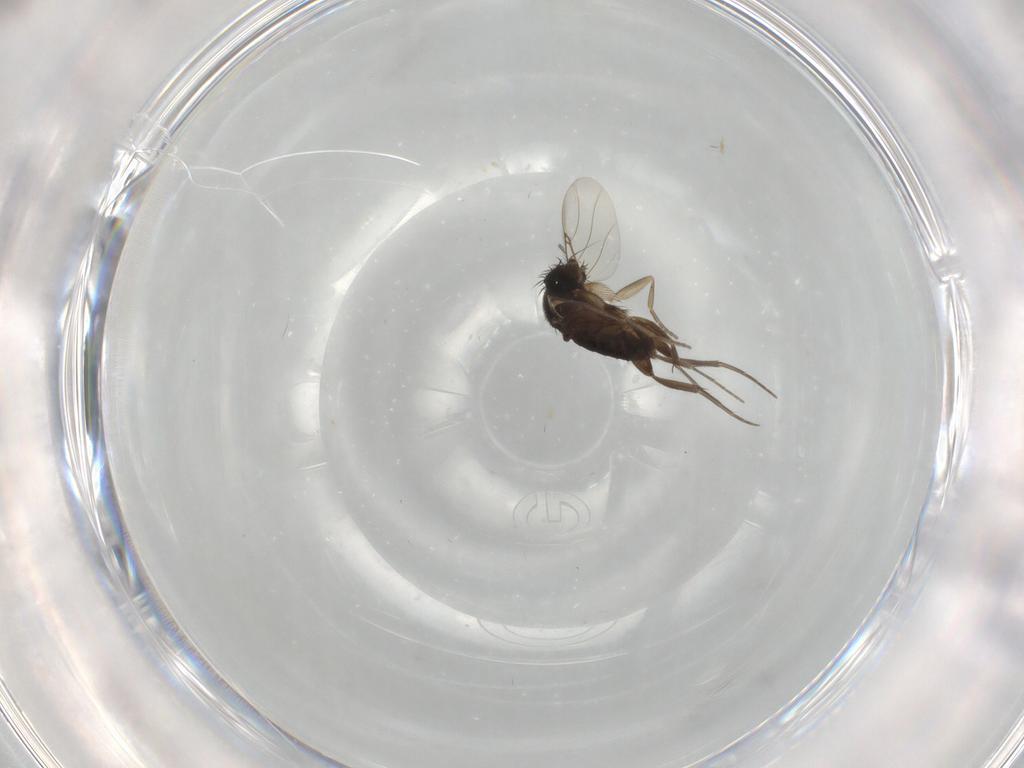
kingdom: Animalia
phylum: Arthropoda
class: Insecta
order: Diptera
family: Phoridae
